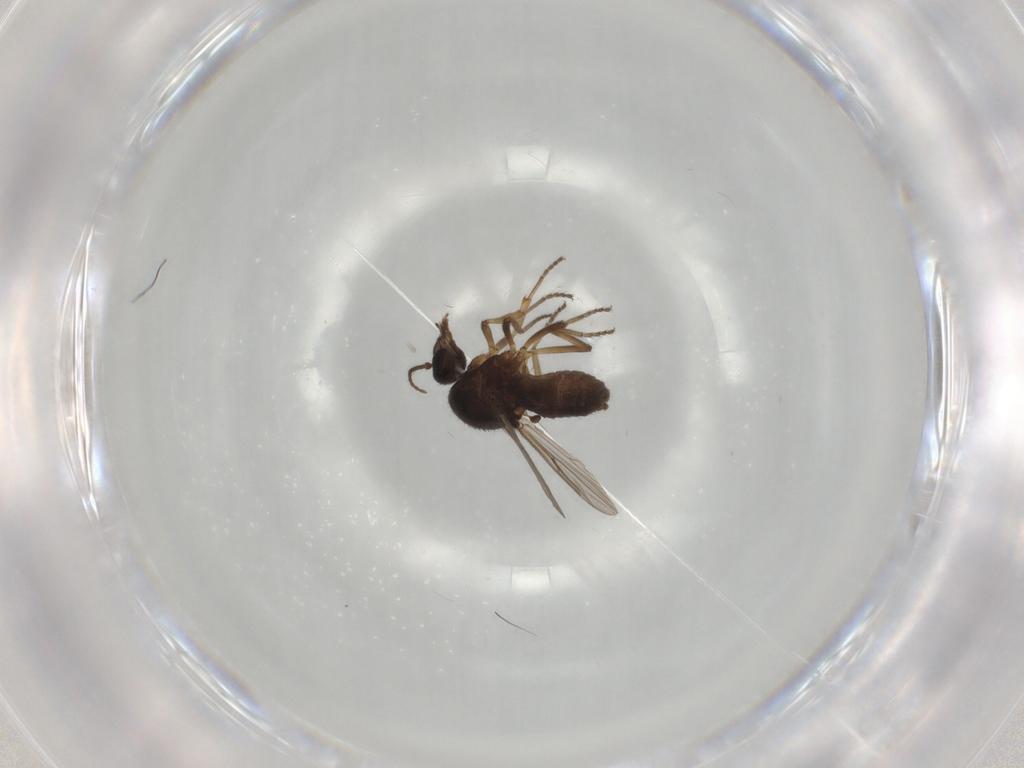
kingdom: Animalia
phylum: Arthropoda
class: Insecta
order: Diptera
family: Ceratopogonidae
